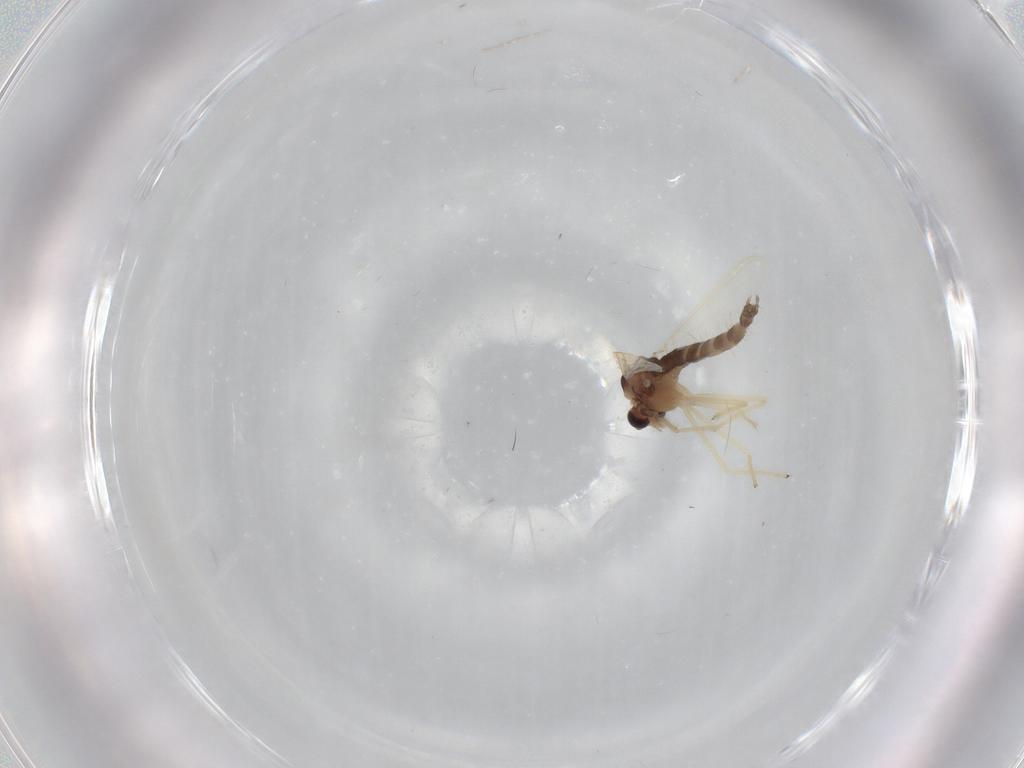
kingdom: Animalia
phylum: Arthropoda
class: Insecta
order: Diptera
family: Chironomidae
